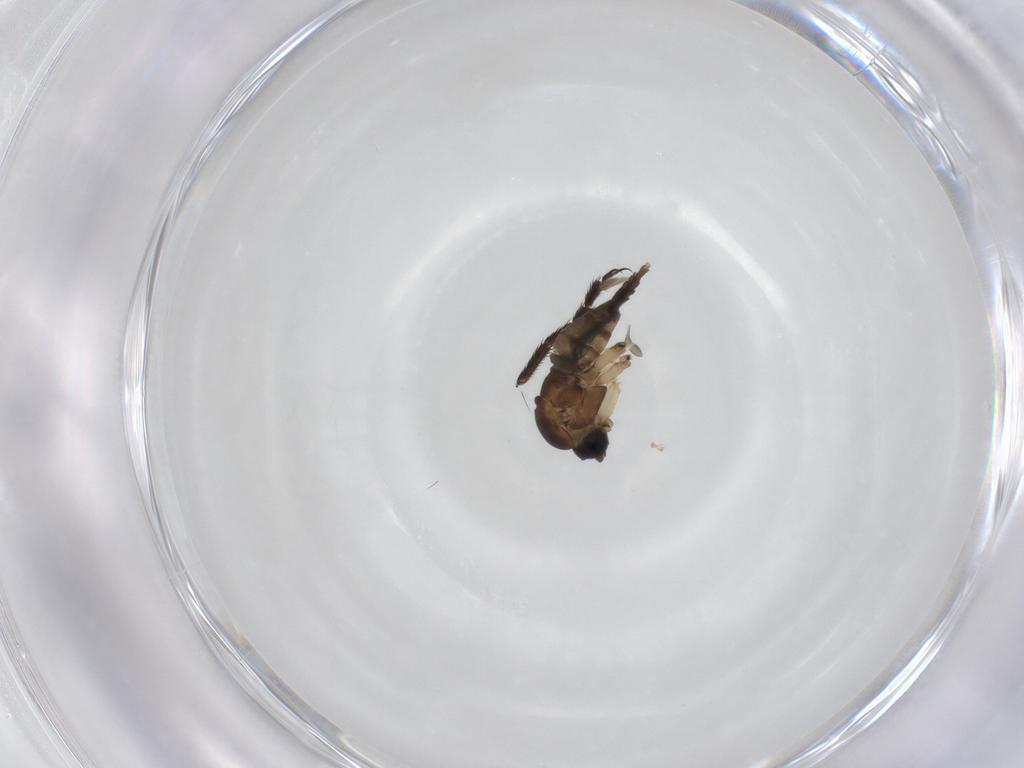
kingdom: Animalia
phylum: Arthropoda
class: Insecta
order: Diptera
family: Sciaridae
